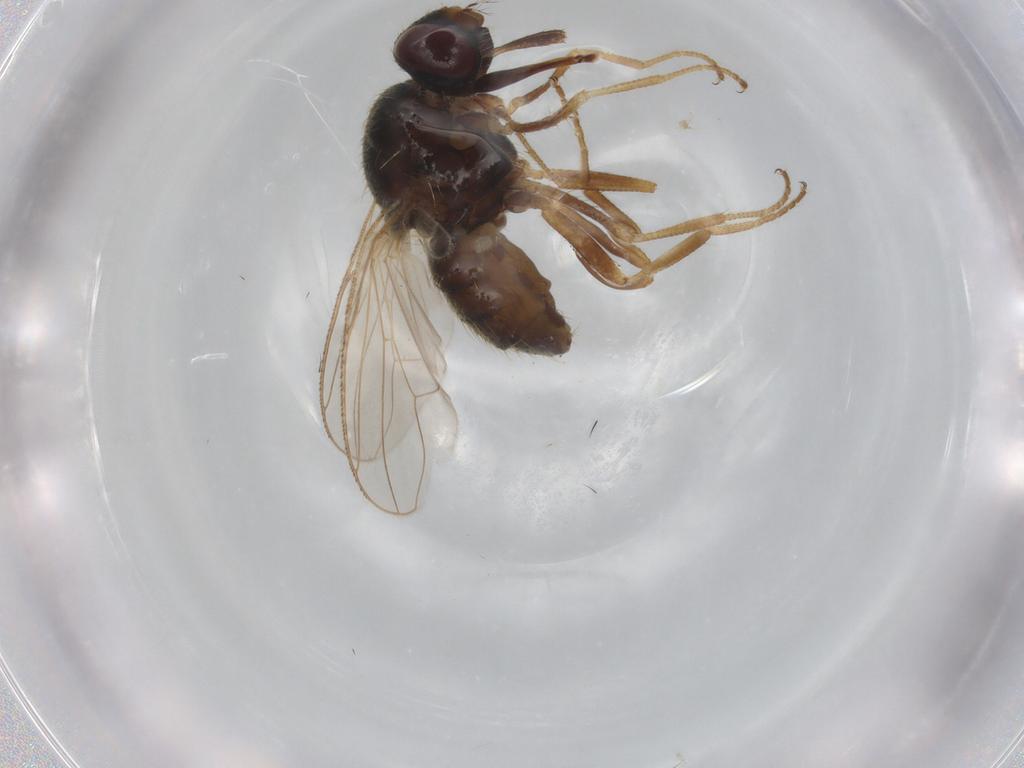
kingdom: Animalia
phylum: Arthropoda
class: Insecta
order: Diptera
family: Muscidae
